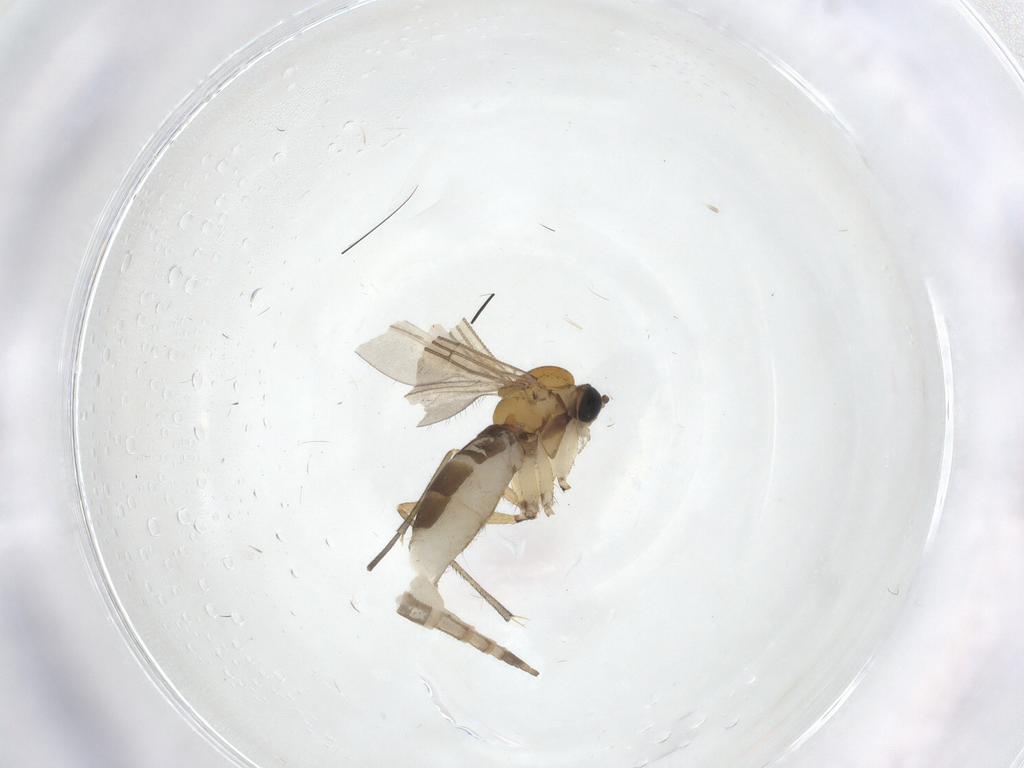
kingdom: Animalia
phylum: Arthropoda
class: Insecta
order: Diptera
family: Sciaridae
